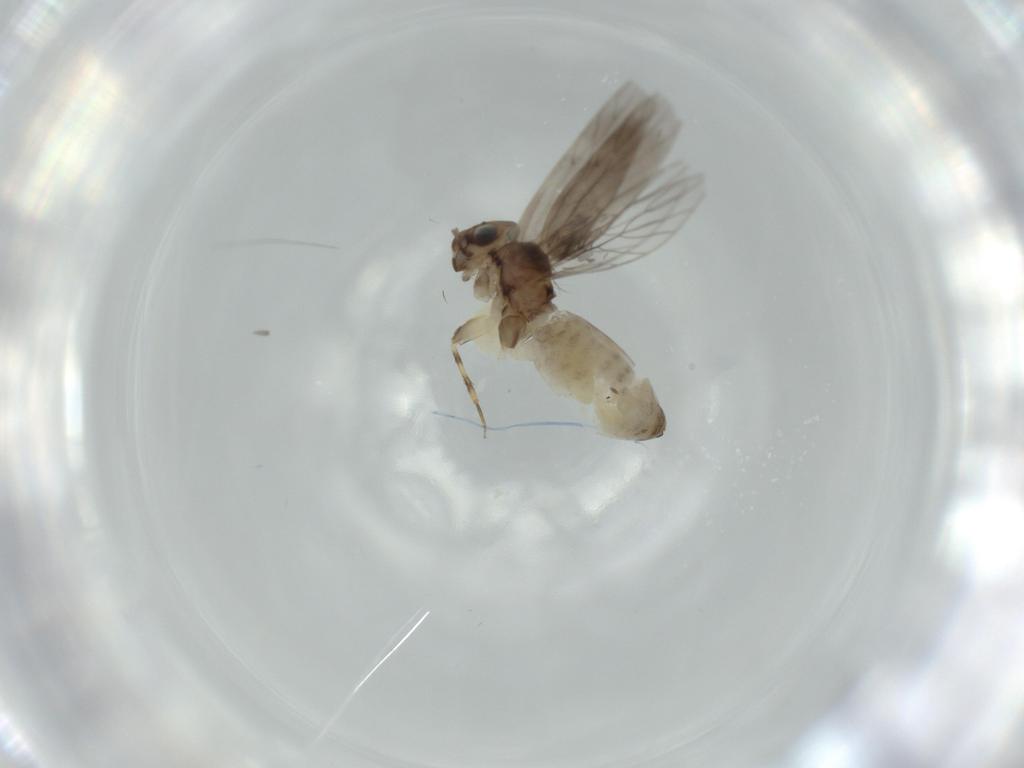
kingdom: Animalia
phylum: Arthropoda
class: Insecta
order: Psocodea
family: Lepidopsocidae
